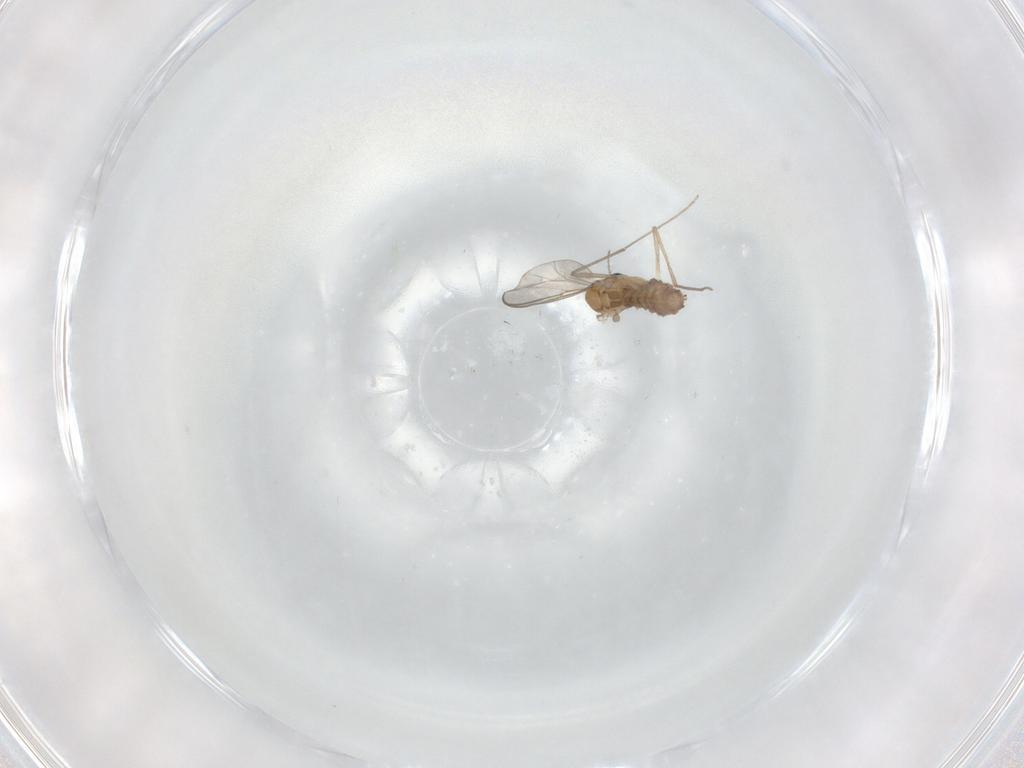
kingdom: Animalia
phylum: Arthropoda
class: Insecta
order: Diptera
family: Chironomidae
